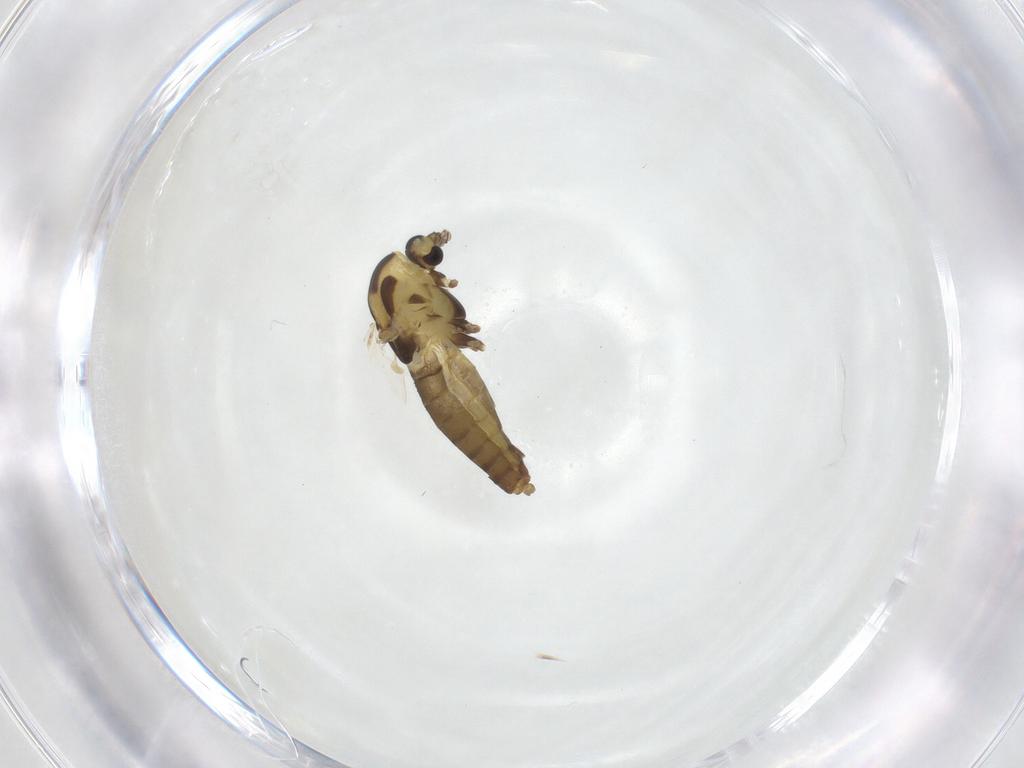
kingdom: Animalia
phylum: Arthropoda
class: Insecta
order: Diptera
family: Chironomidae
